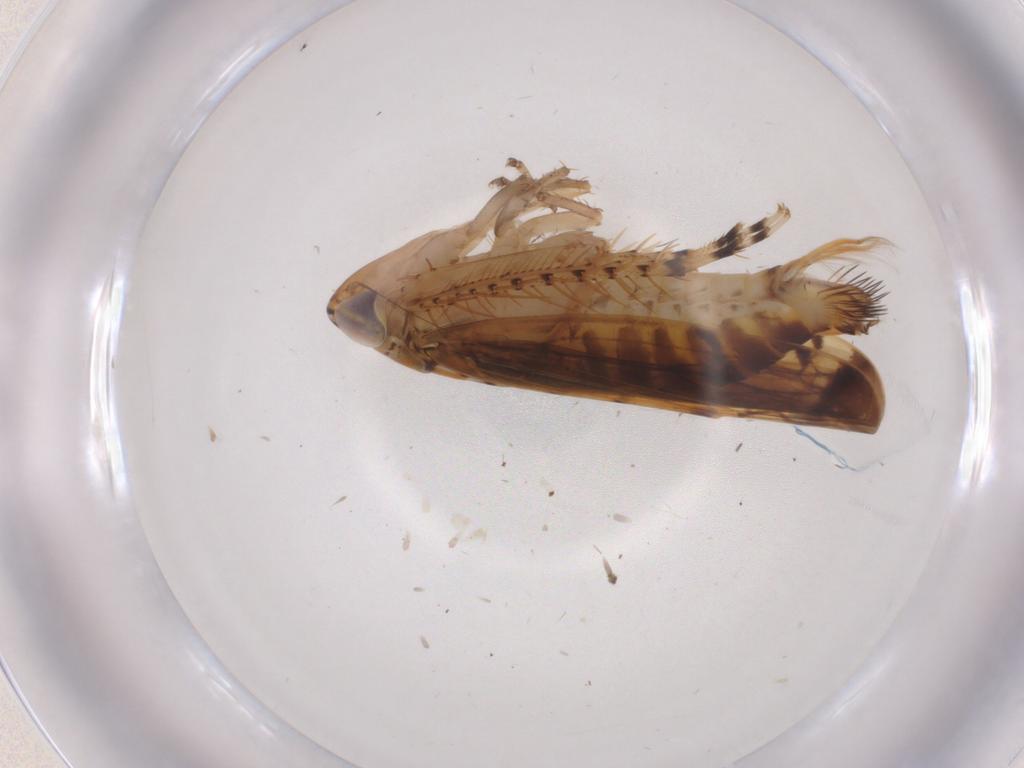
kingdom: Animalia
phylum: Arthropoda
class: Insecta
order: Hemiptera
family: Cicadellidae
